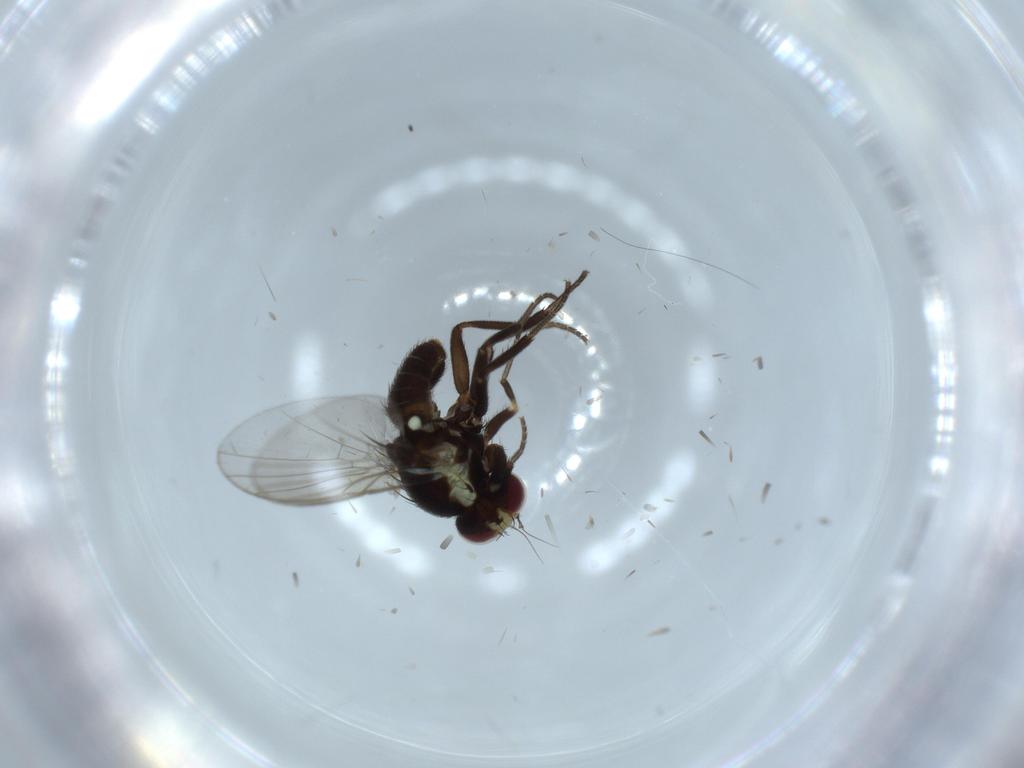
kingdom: Animalia
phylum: Arthropoda
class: Insecta
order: Diptera
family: Agromyzidae
